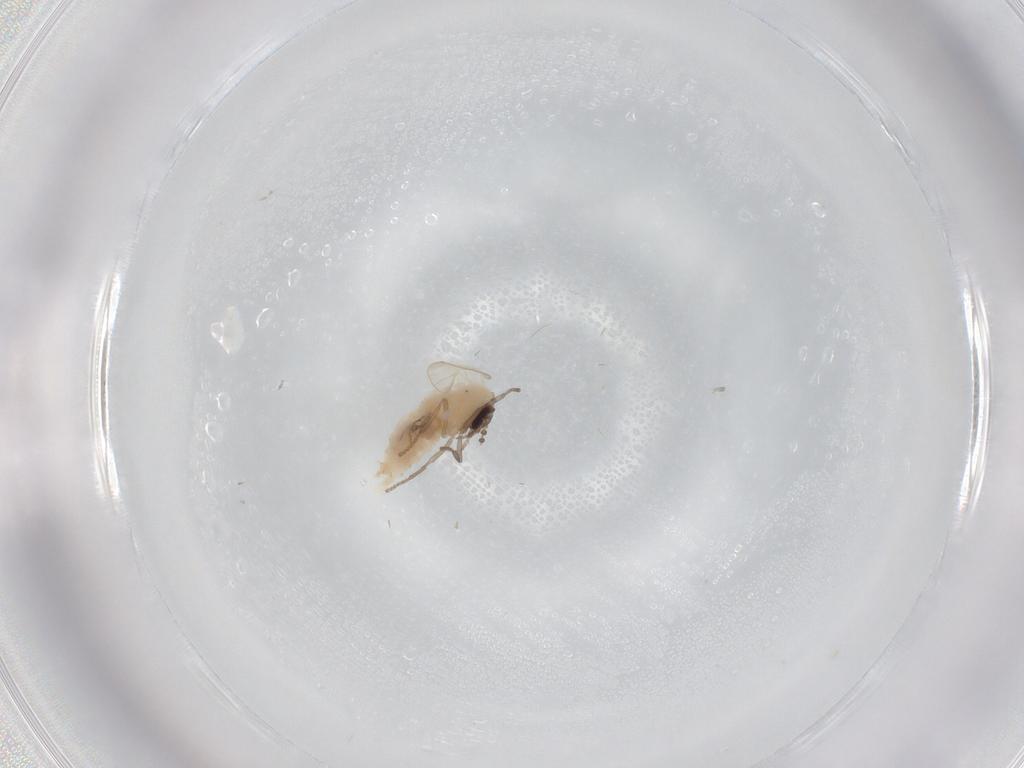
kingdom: Animalia
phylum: Arthropoda
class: Insecta
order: Diptera
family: Psychodidae
